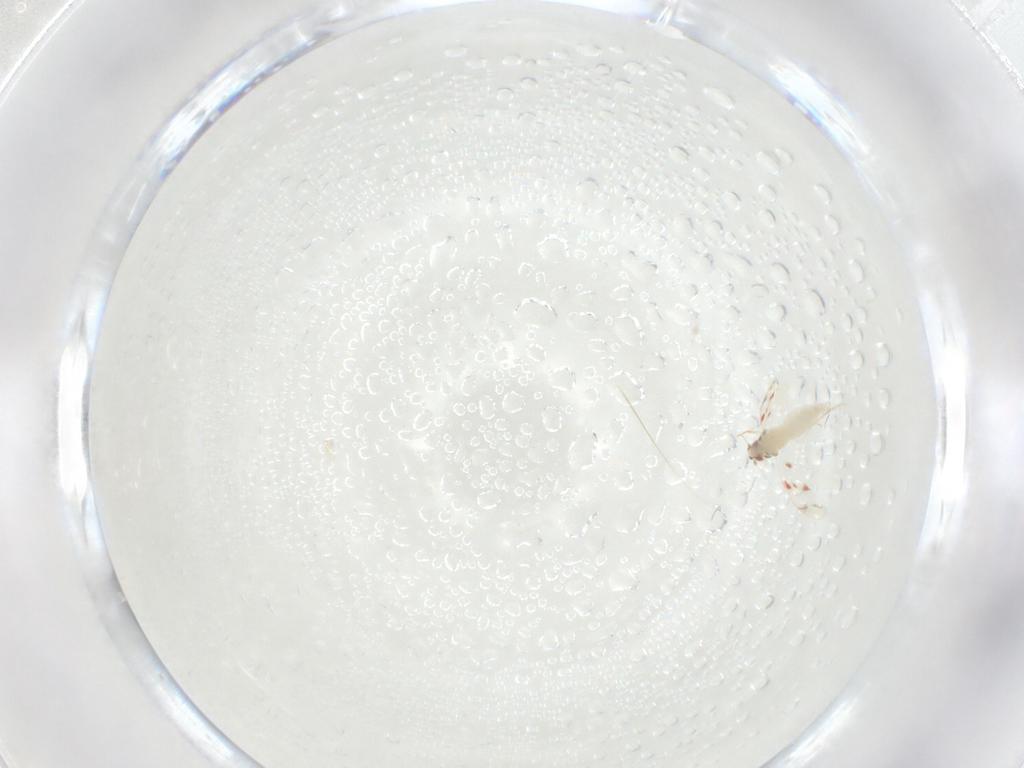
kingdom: Animalia
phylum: Arthropoda
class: Insecta
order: Hemiptera
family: Aleyrodidae
